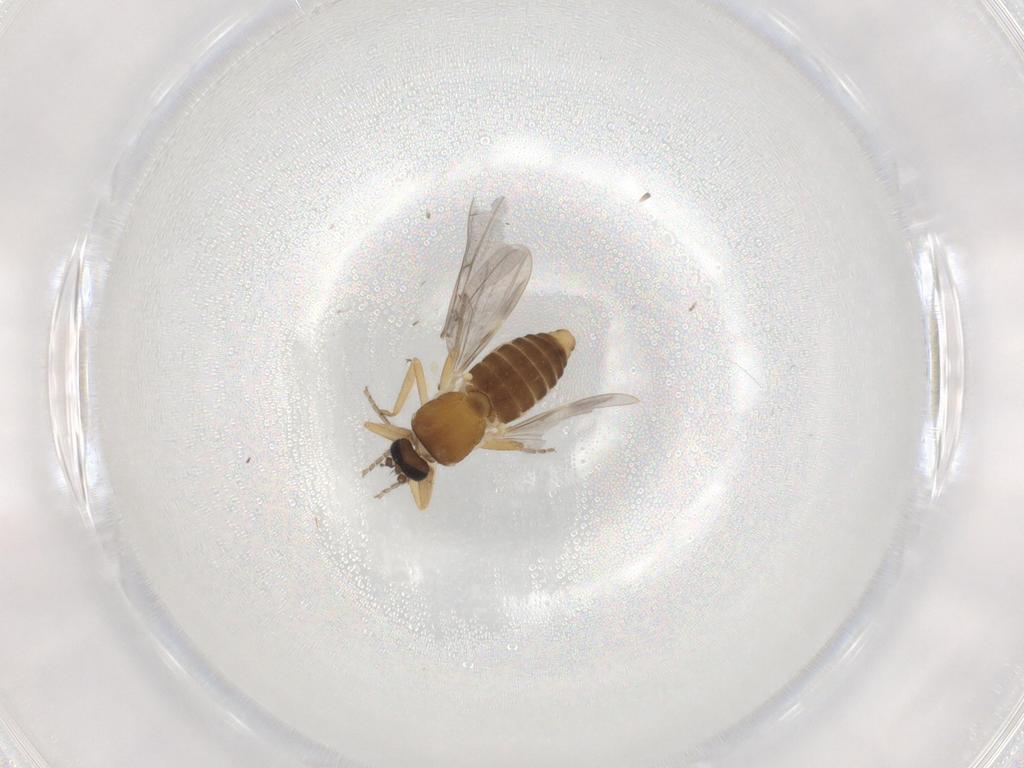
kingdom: Animalia
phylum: Arthropoda
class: Insecta
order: Diptera
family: Ceratopogonidae
